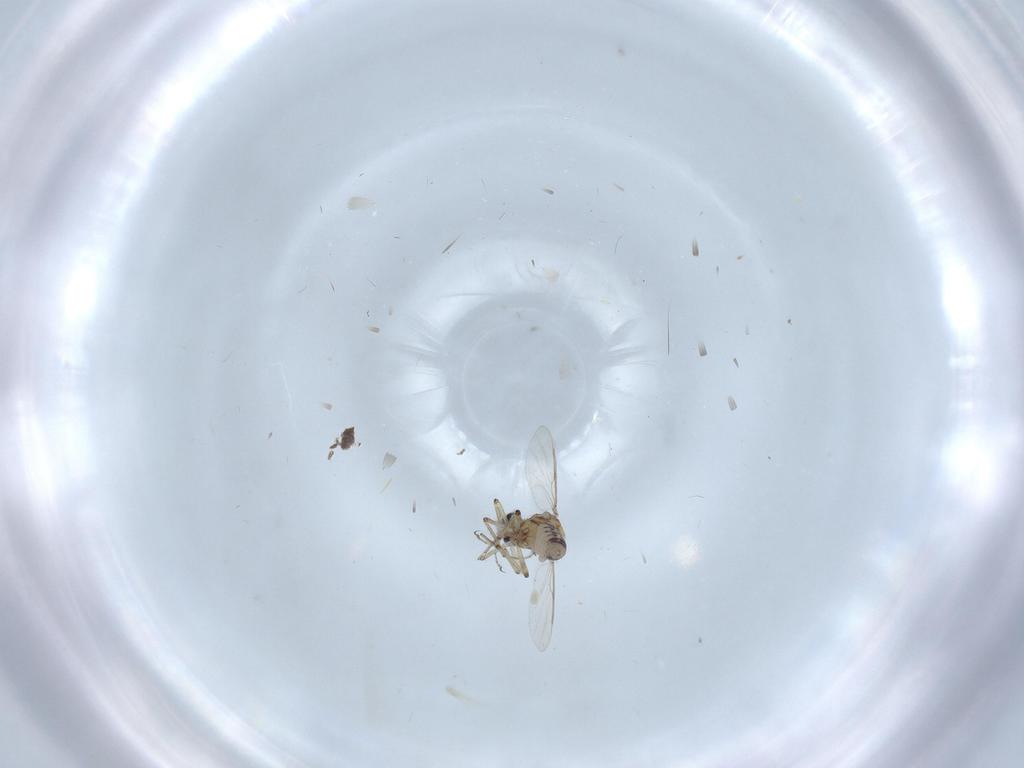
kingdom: Animalia
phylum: Arthropoda
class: Insecta
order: Diptera
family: Ceratopogonidae
